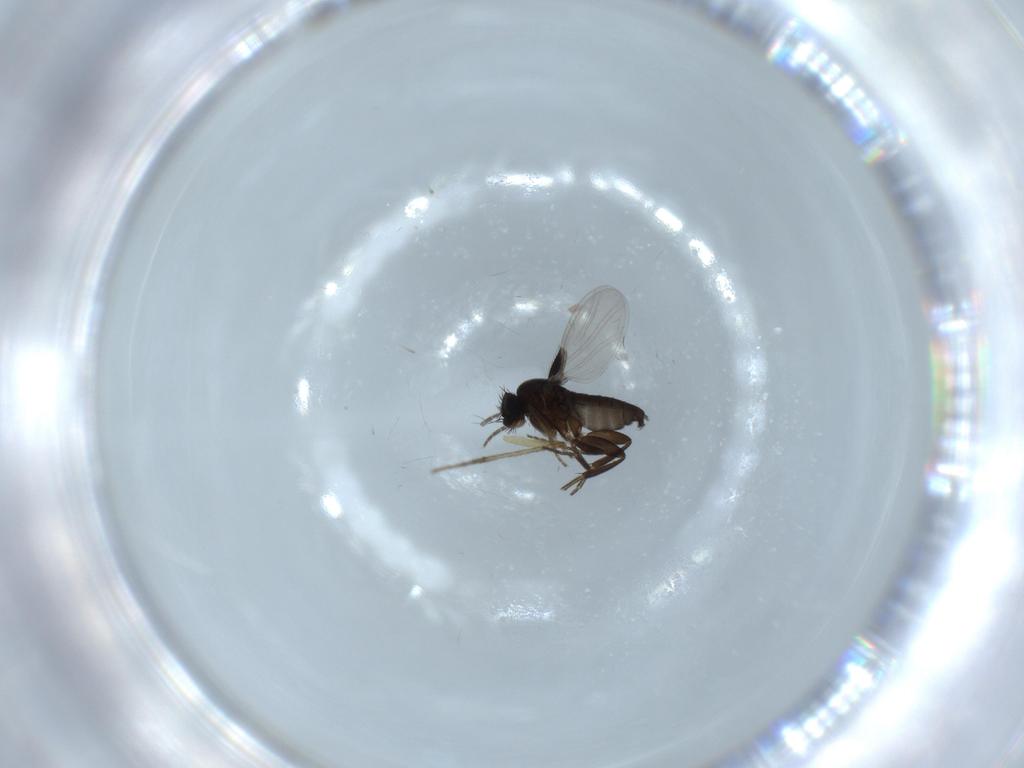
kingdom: Animalia
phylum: Arthropoda
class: Insecta
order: Diptera
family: Phoridae
